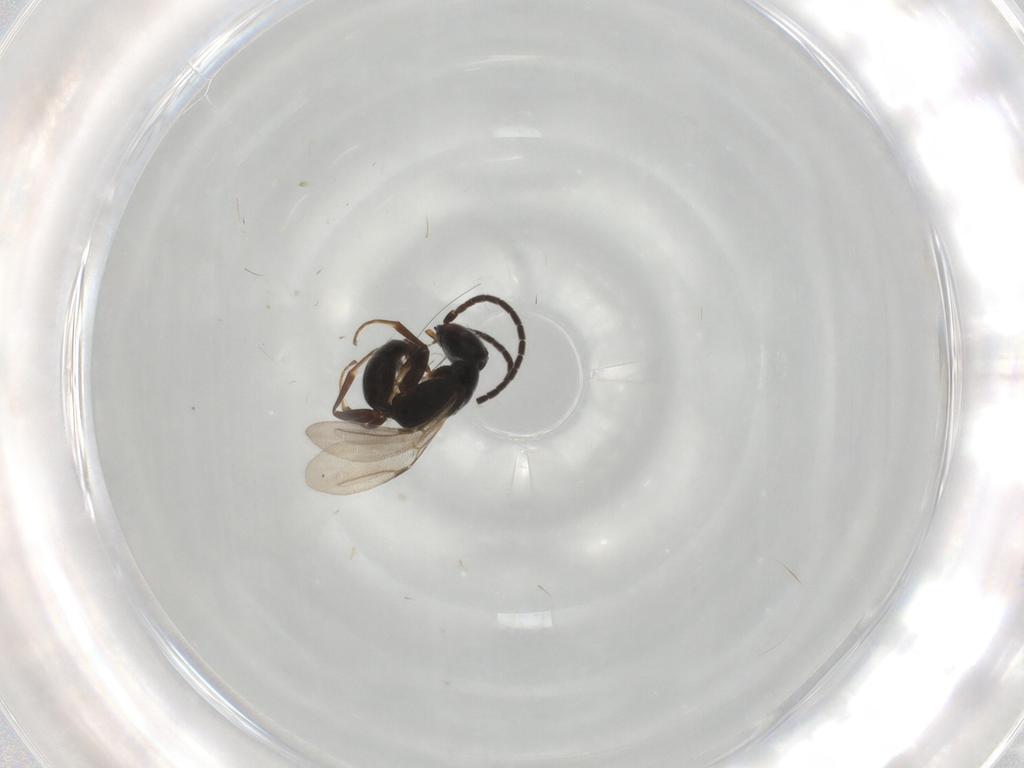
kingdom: Animalia
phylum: Arthropoda
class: Insecta
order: Hymenoptera
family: Bethylidae
